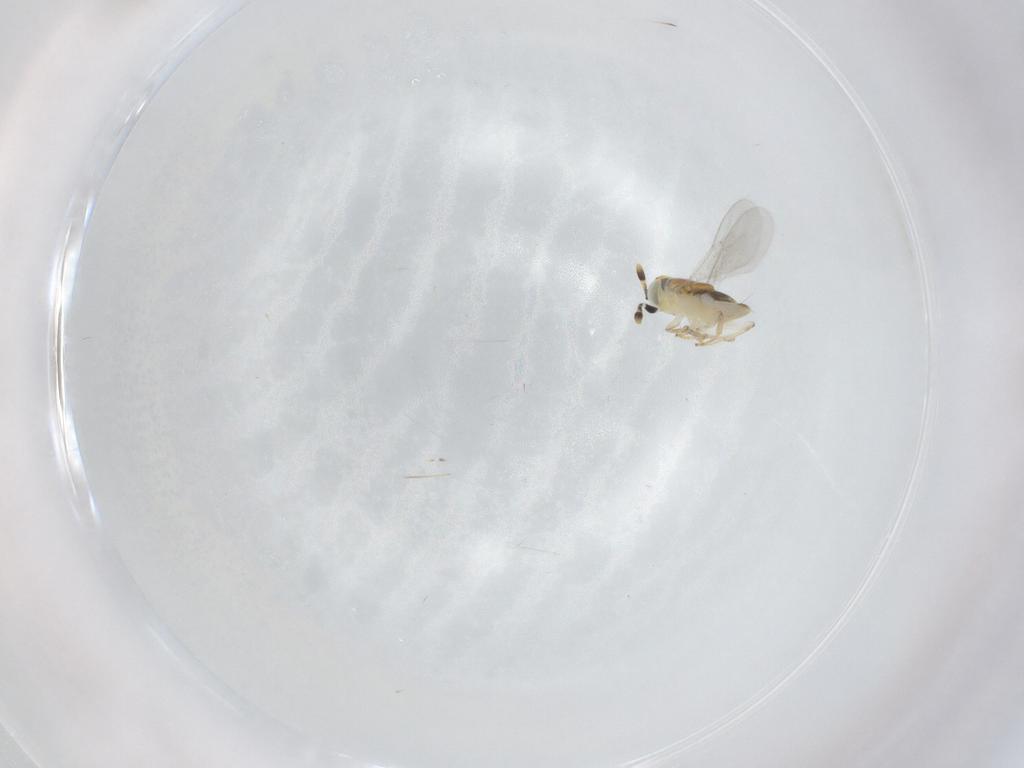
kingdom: Animalia
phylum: Arthropoda
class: Insecta
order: Hymenoptera
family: Encyrtidae
